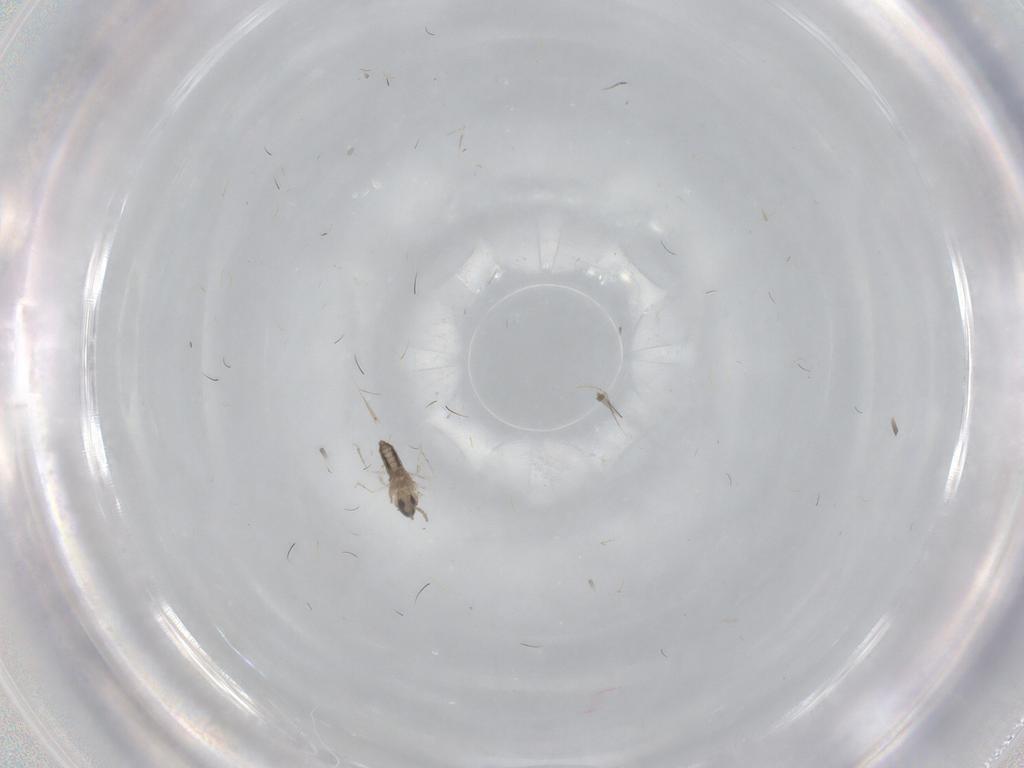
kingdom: Animalia
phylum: Arthropoda
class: Insecta
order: Diptera
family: Cecidomyiidae
